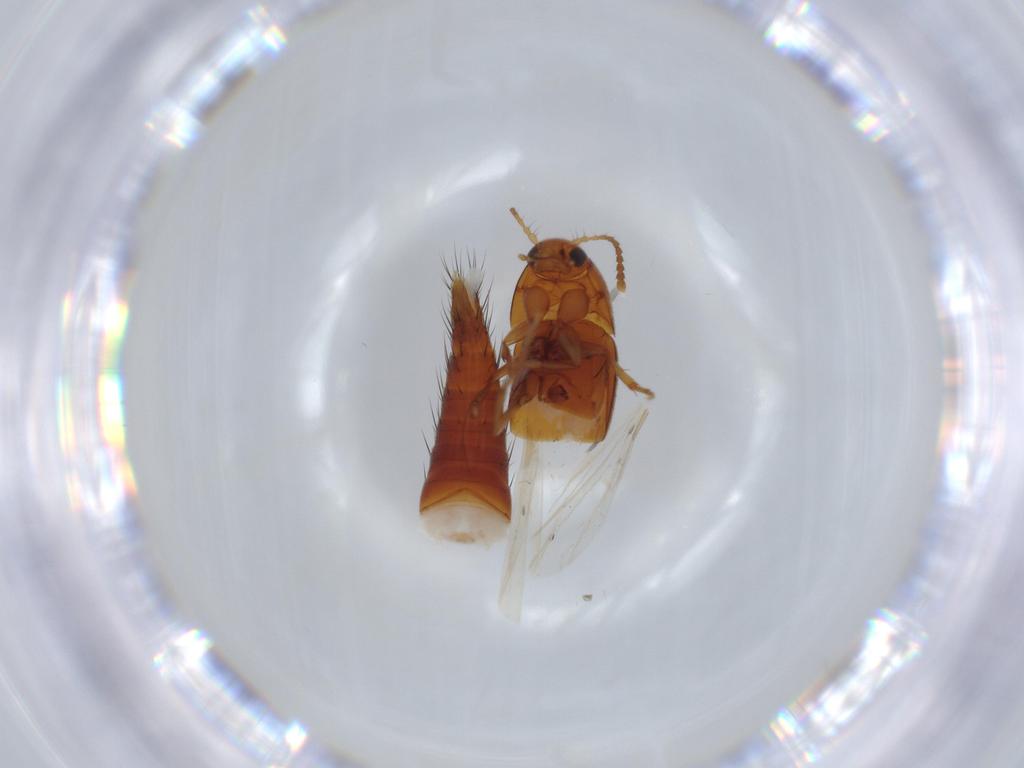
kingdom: Animalia
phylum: Arthropoda
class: Insecta
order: Coleoptera
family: Staphylinidae
